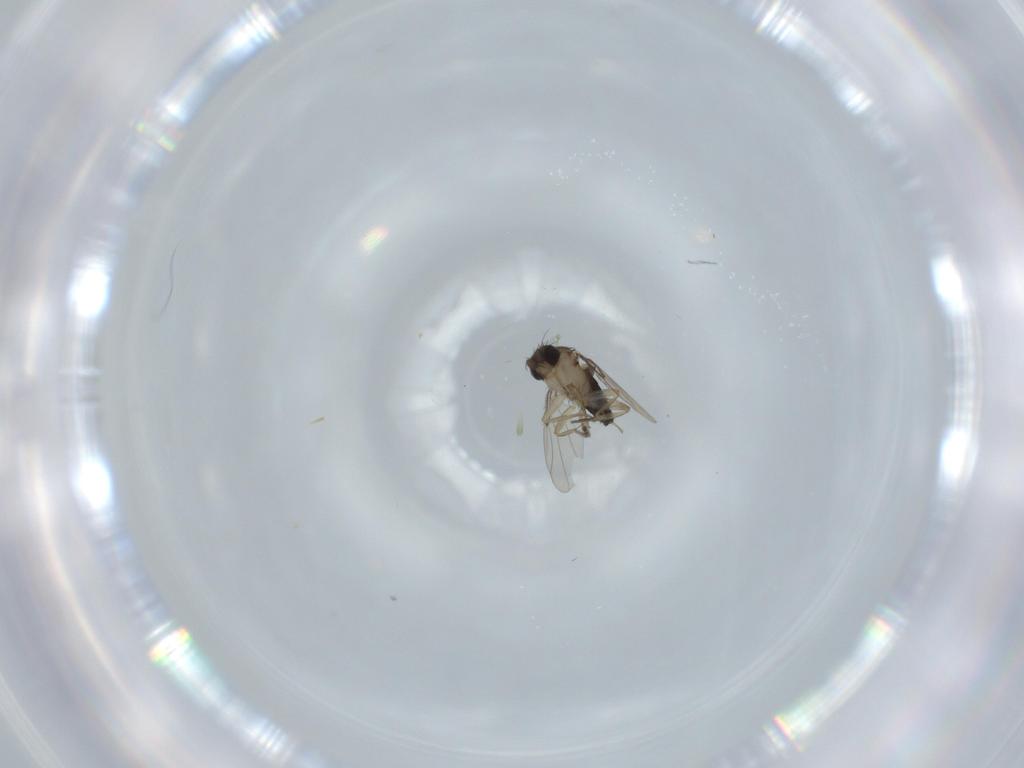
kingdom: Animalia
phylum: Arthropoda
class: Insecta
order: Diptera
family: Phoridae
